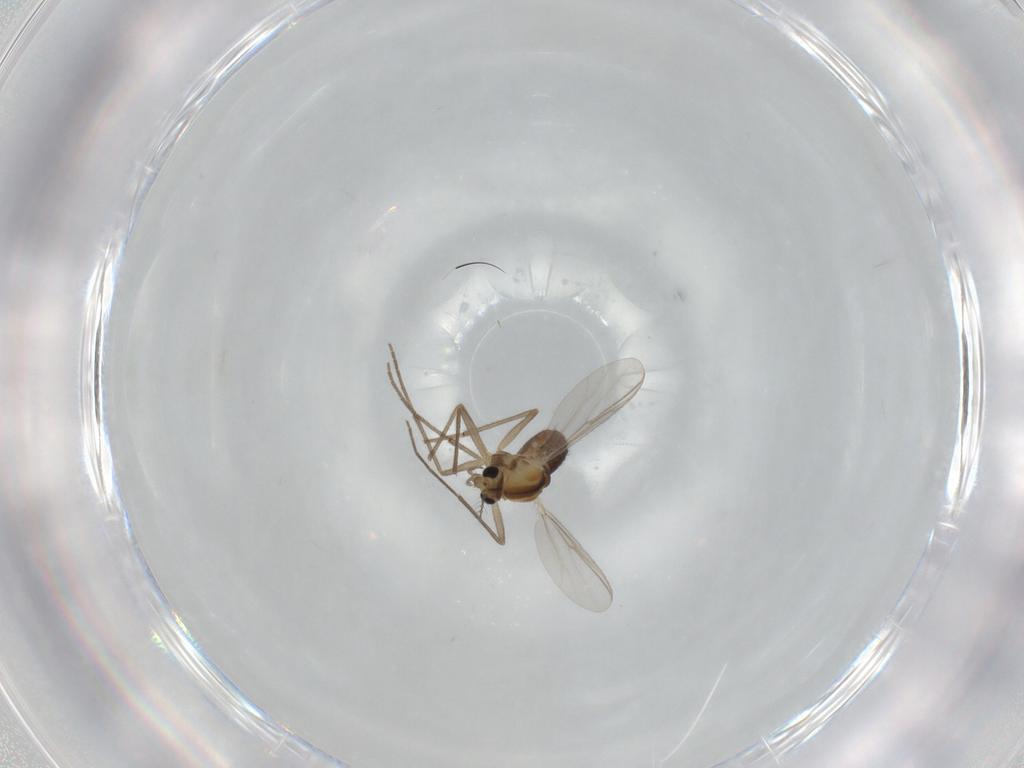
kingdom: Animalia
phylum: Arthropoda
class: Insecta
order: Diptera
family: Chironomidae
